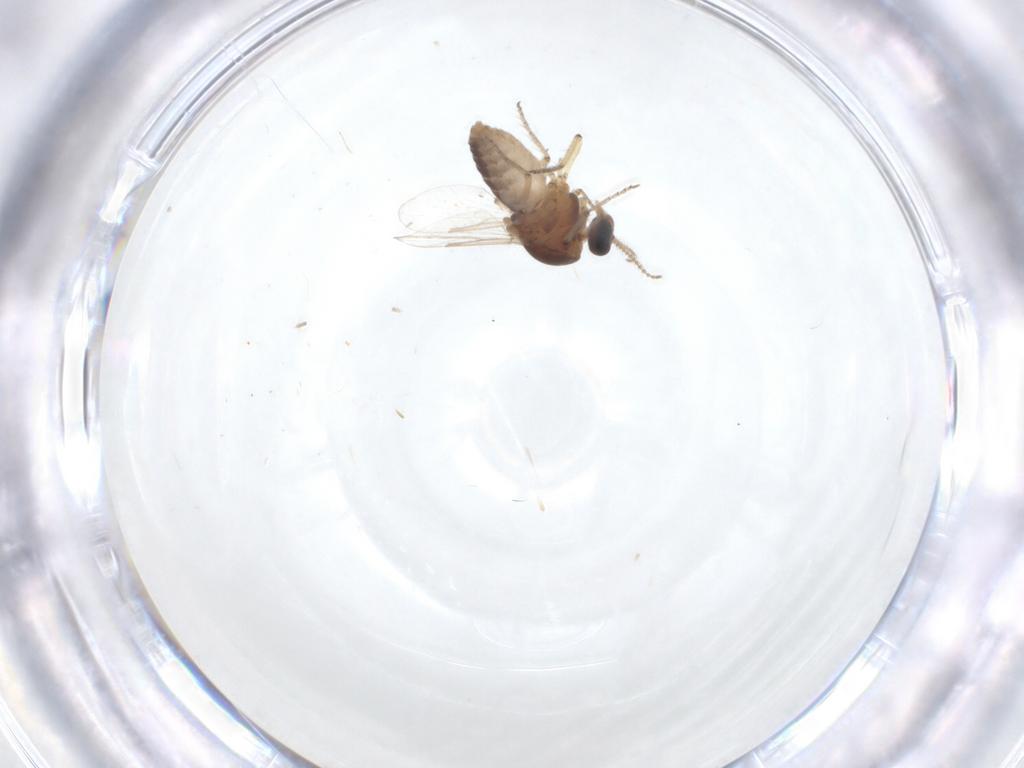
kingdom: Animalia
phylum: Arthropoda
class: Insecta
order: Diptera
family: Ceratopogonidae
